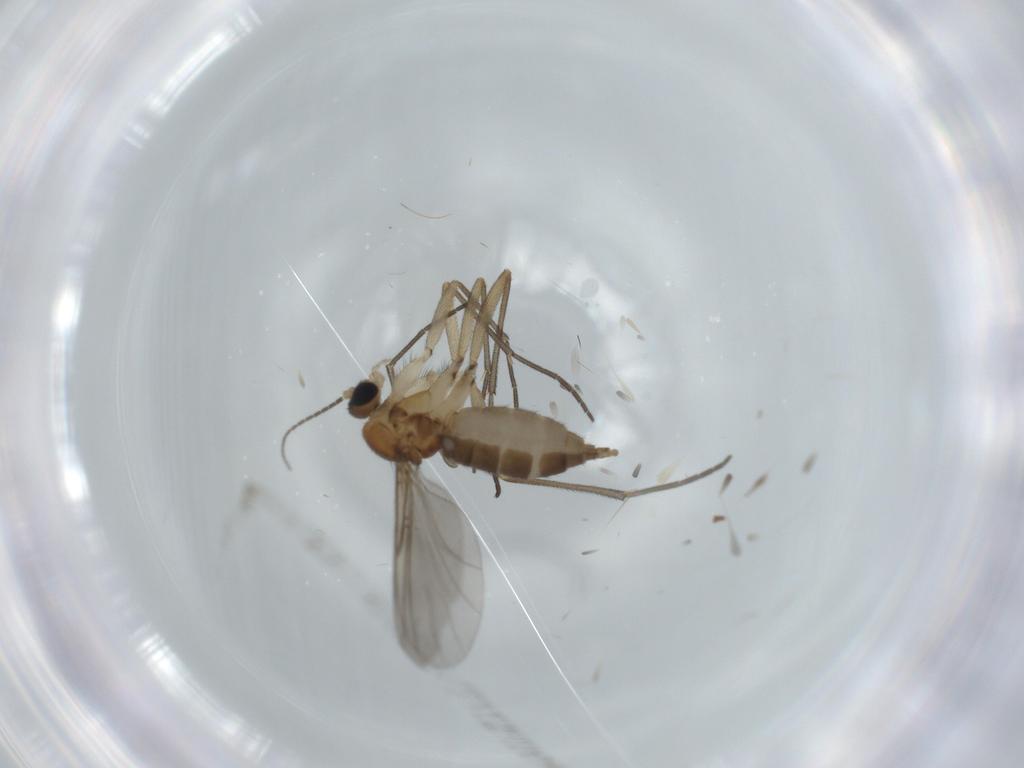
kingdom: Animalia
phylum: Arthropoda
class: Insecta
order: Diptera
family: Sciaridae
